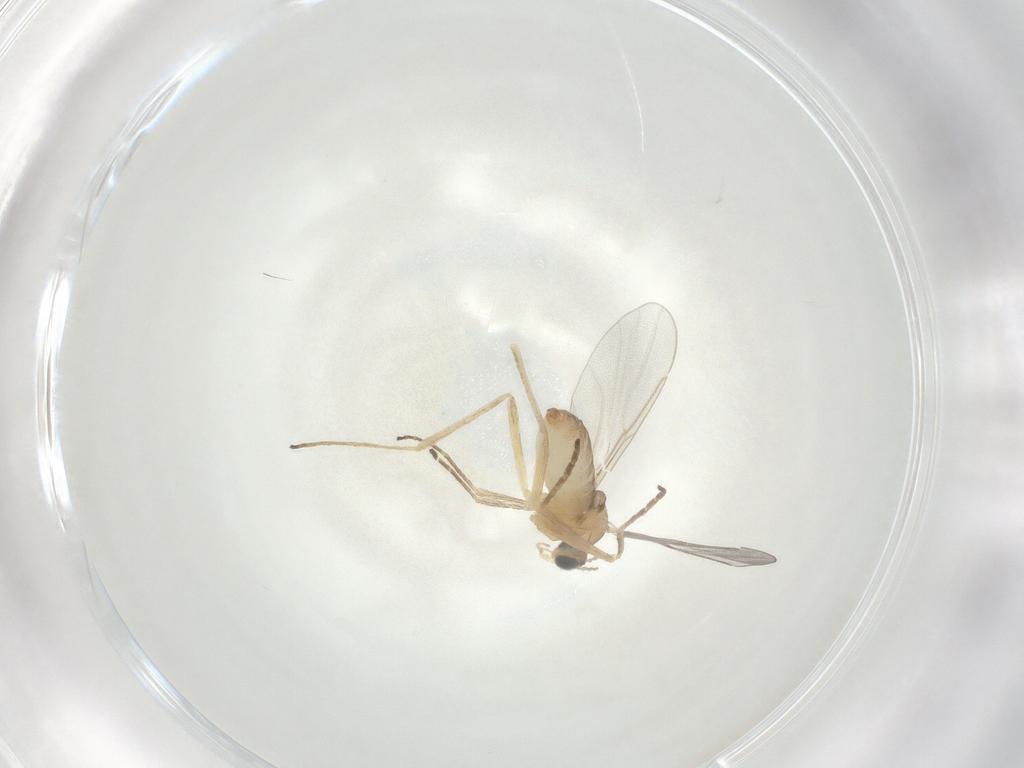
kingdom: Animalia
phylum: Arthropoda
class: Insecta
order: Diptera
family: Cecidomyiidae
